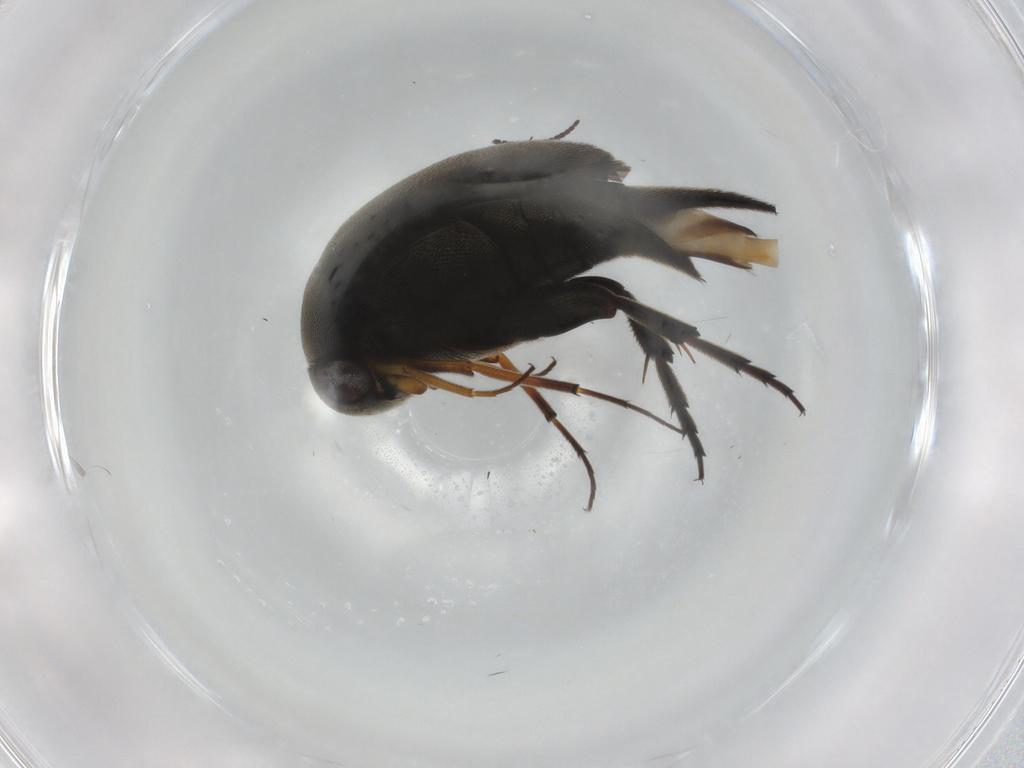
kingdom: Animalia
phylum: Arthropoda
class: Insecta
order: Coleoptera
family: Mordellidae
